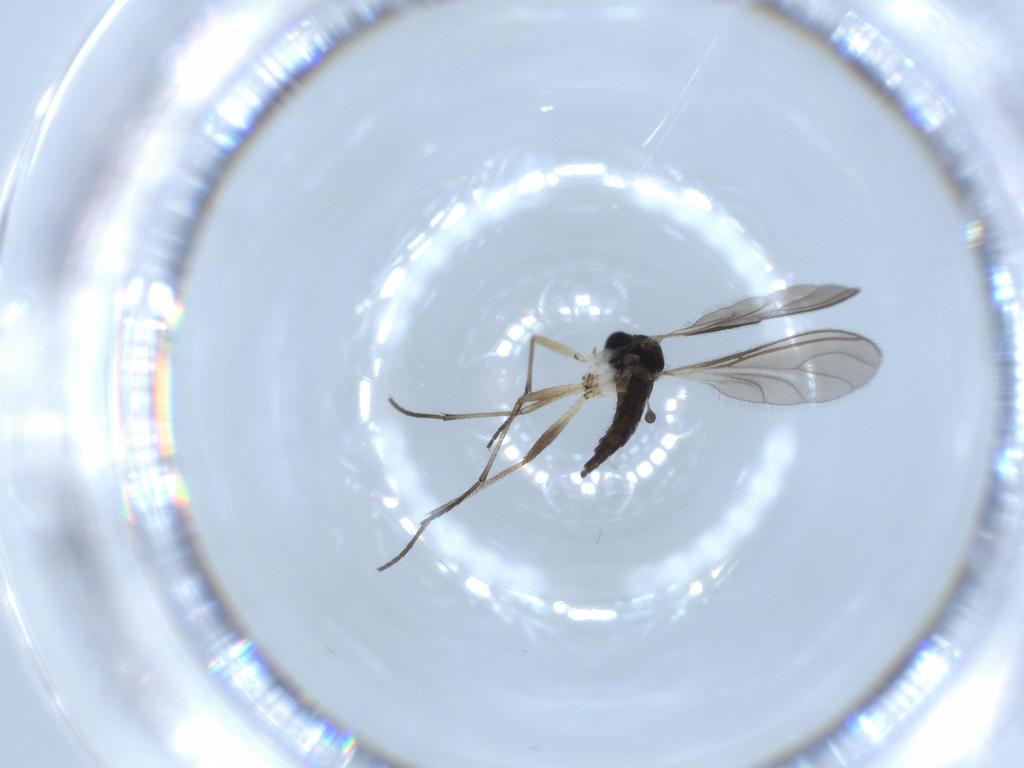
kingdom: Animalia
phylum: Arthropoda
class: Insecta
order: Diptera
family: Sciaridae
